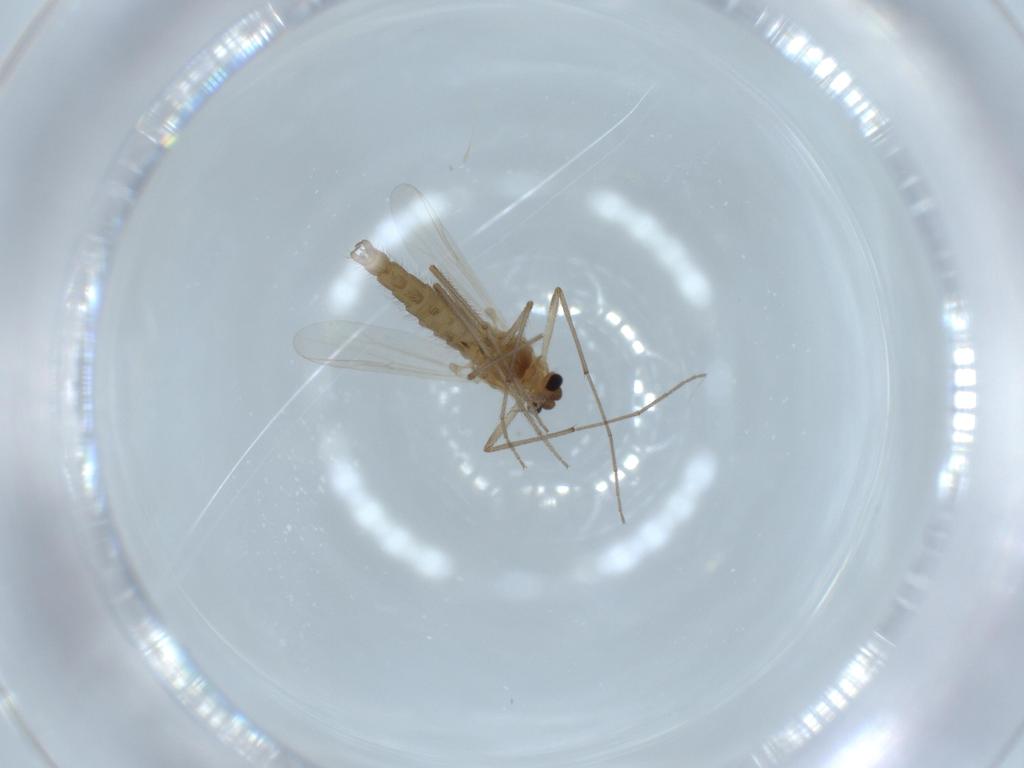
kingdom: Animalia
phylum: Arthropoda
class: Insecta
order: Diptera
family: Chironomidae
